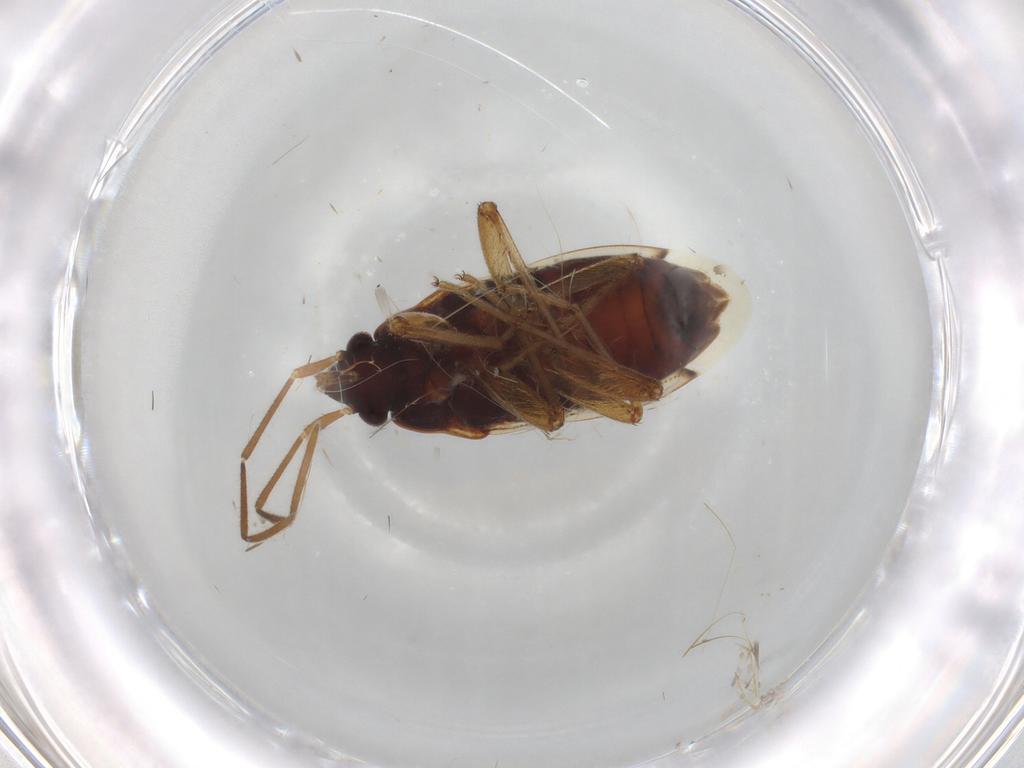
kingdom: Animalia
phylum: Arthropoda
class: Insecta
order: Hemiptera
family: Rhyparochromidae
